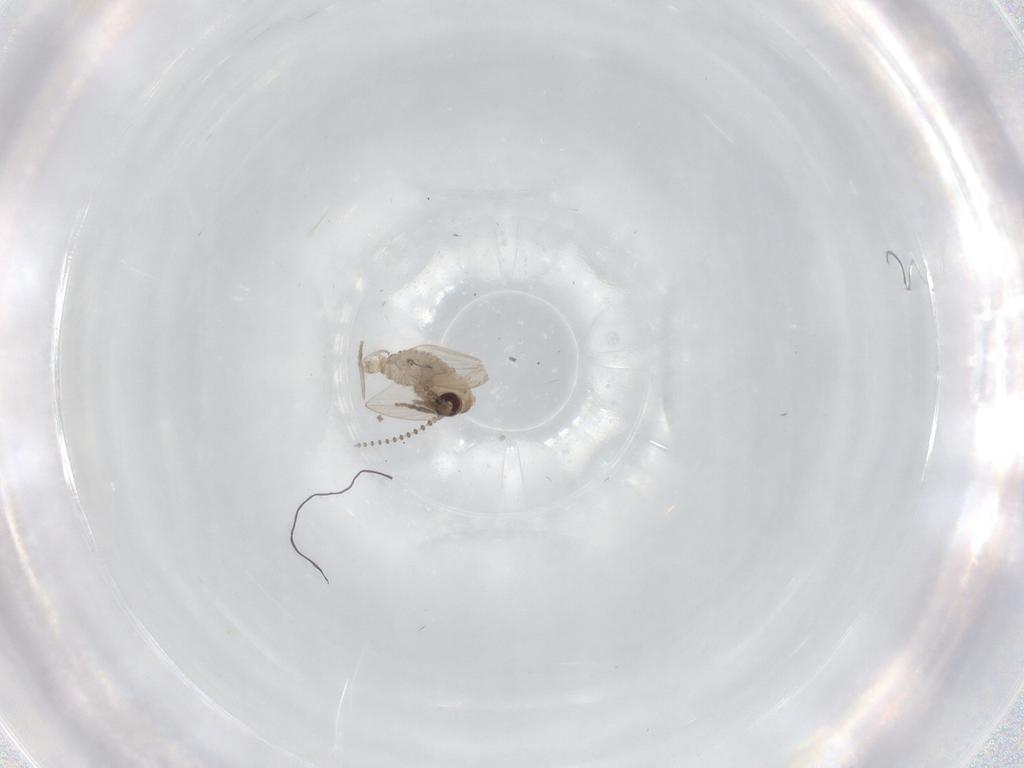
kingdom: Animalia
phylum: Arthropoda
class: Insecta
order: Diptera
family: Psychodidae
